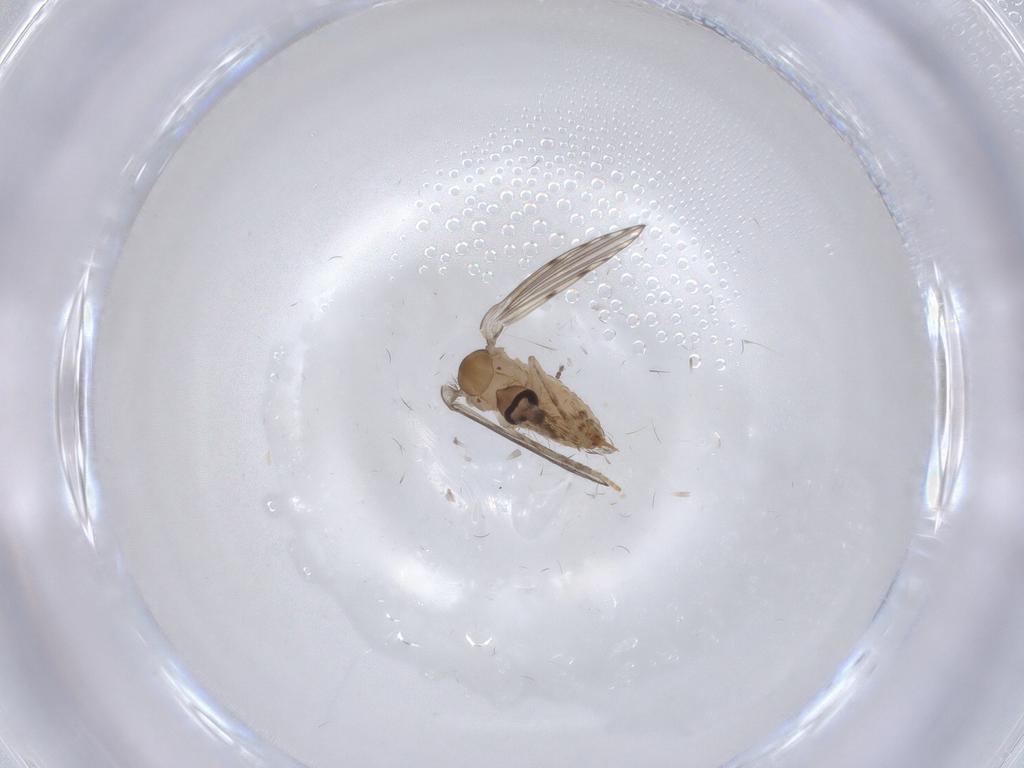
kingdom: Animalia
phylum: Arthropoda
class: Insecta
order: Diptera
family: Psychodidae
